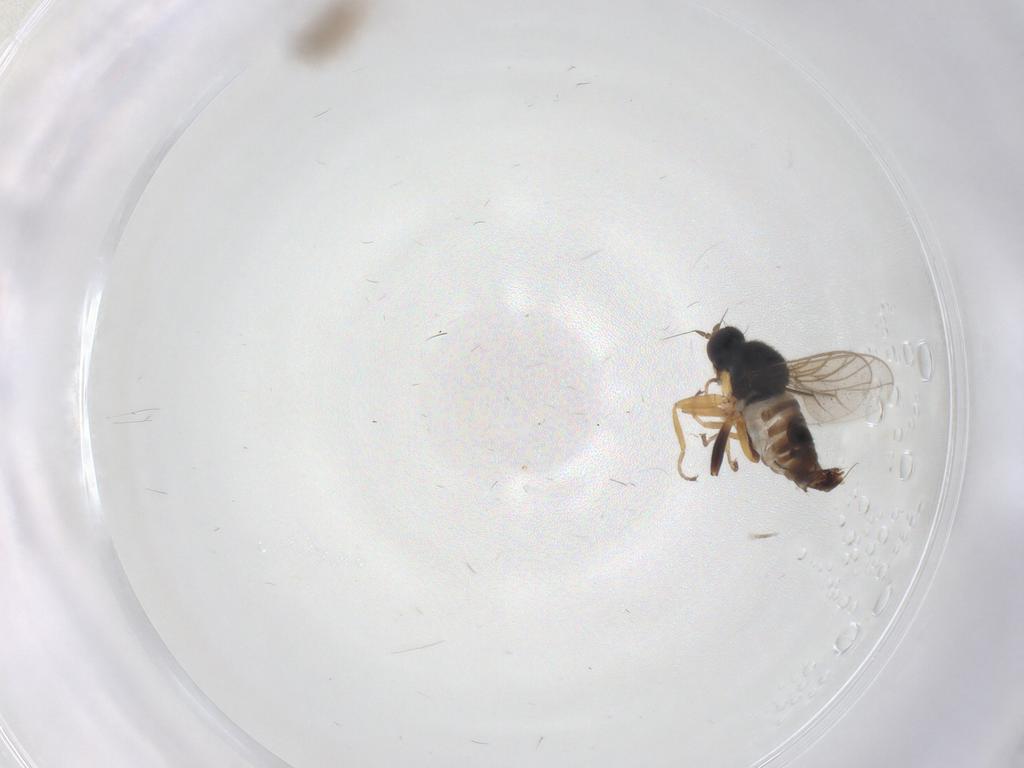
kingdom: Animalia
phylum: Arthropoda
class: Insecta
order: Diptera
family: Hybotidae
